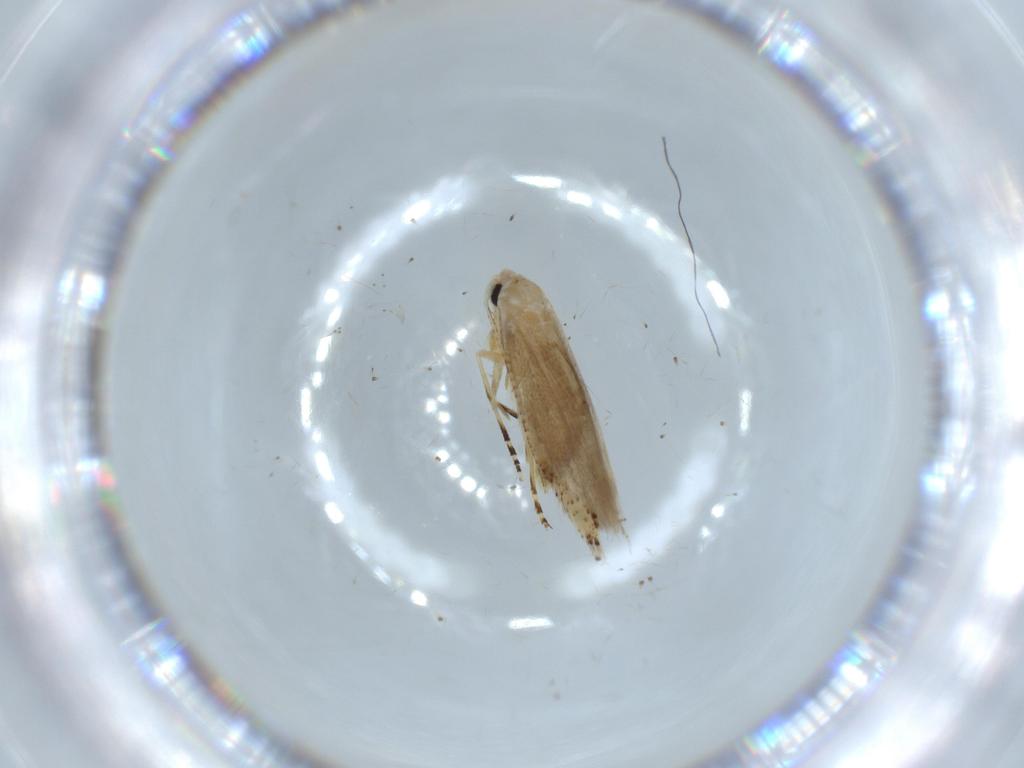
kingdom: Animalia
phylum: Arthropoda
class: Insecta
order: Lepidoptera
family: Bucculatricidae
